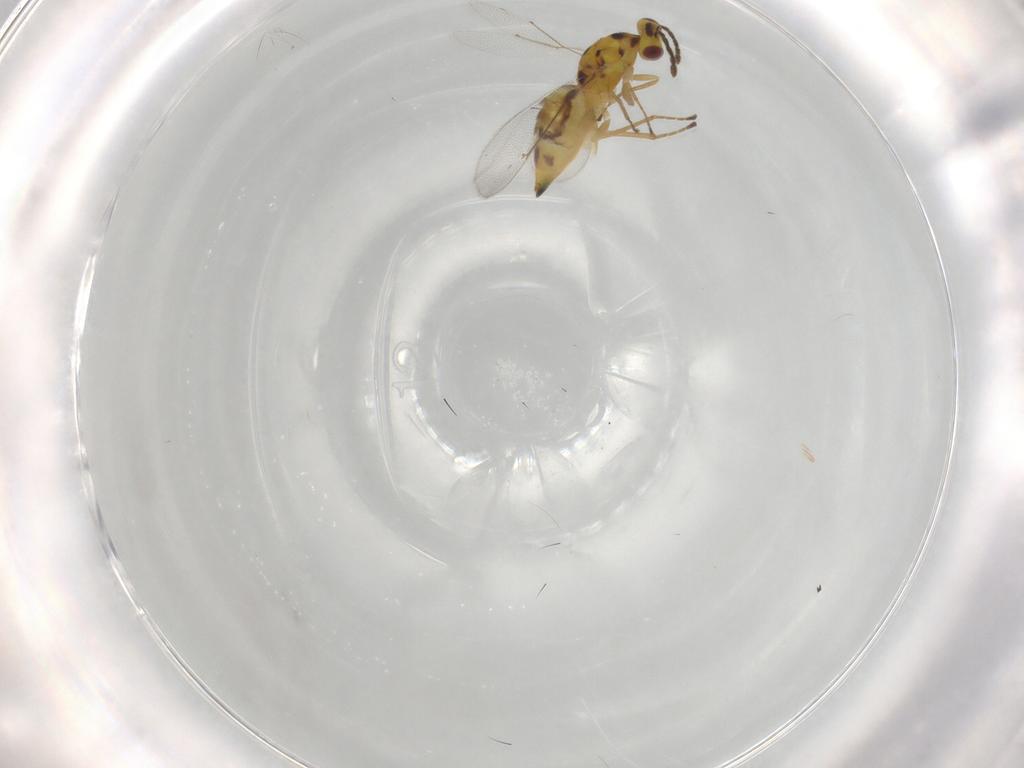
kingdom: Animalia
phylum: Arthropoda
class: Insecta
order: Hymenoptera
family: Eulophidae
